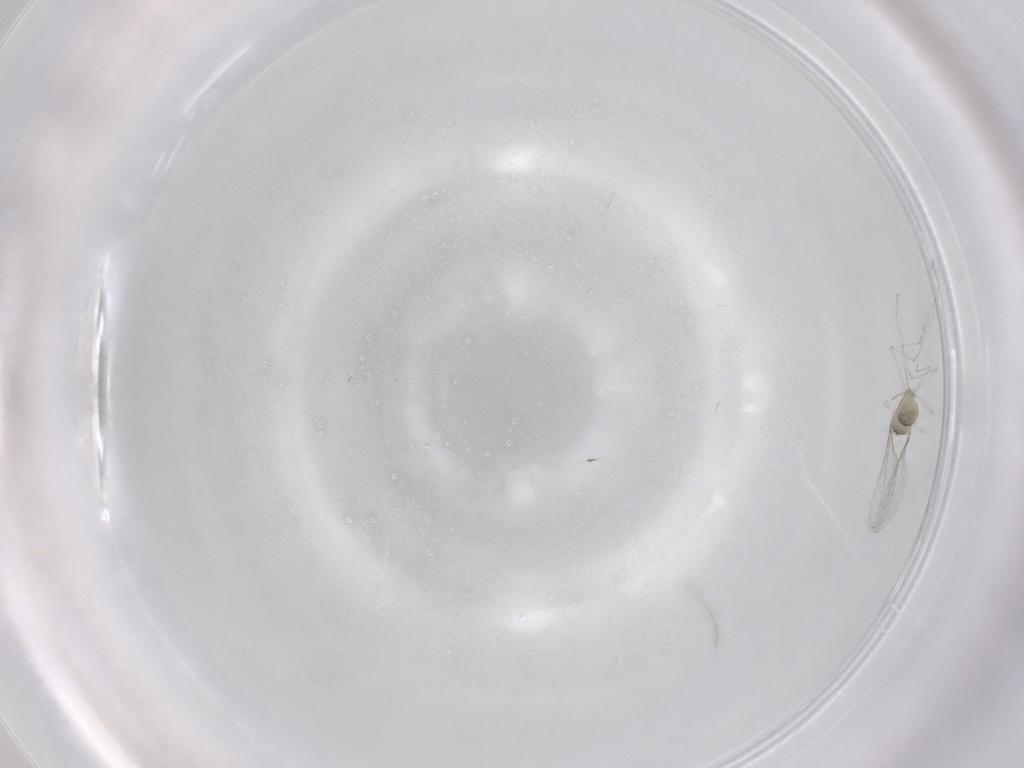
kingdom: Animalia
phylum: Arthropoda
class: Insecta
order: Diptera
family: Cecidomyiidae
